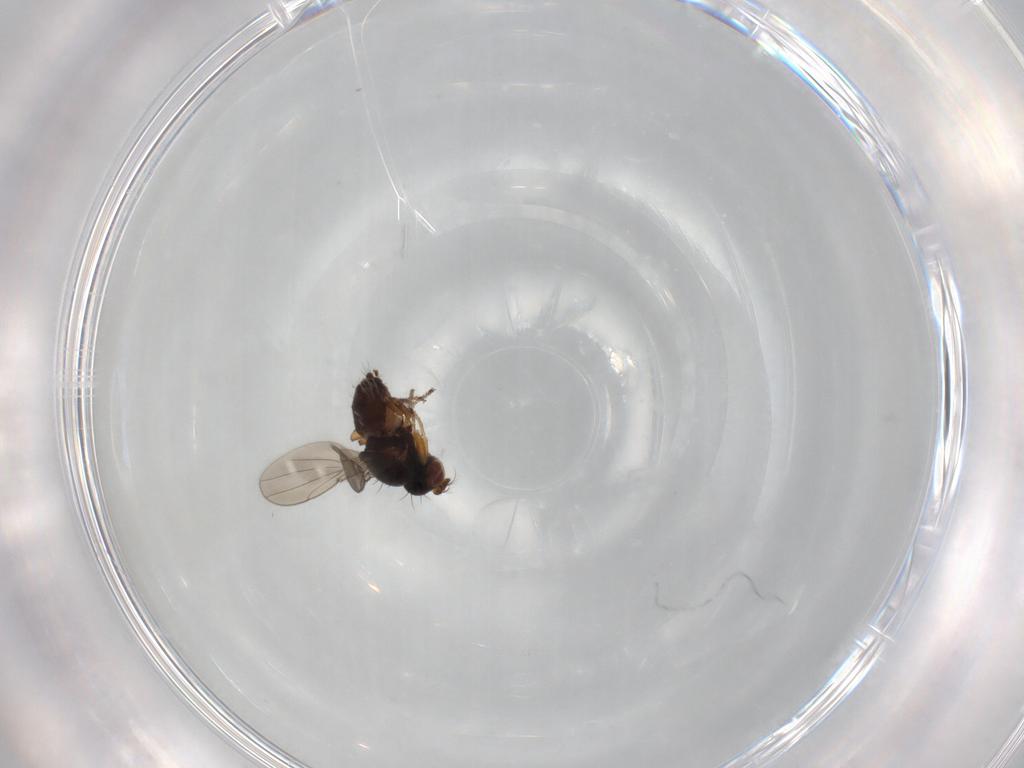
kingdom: Animalia
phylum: Arthropoda
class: Insecta
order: Diptera
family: Ephydridae
